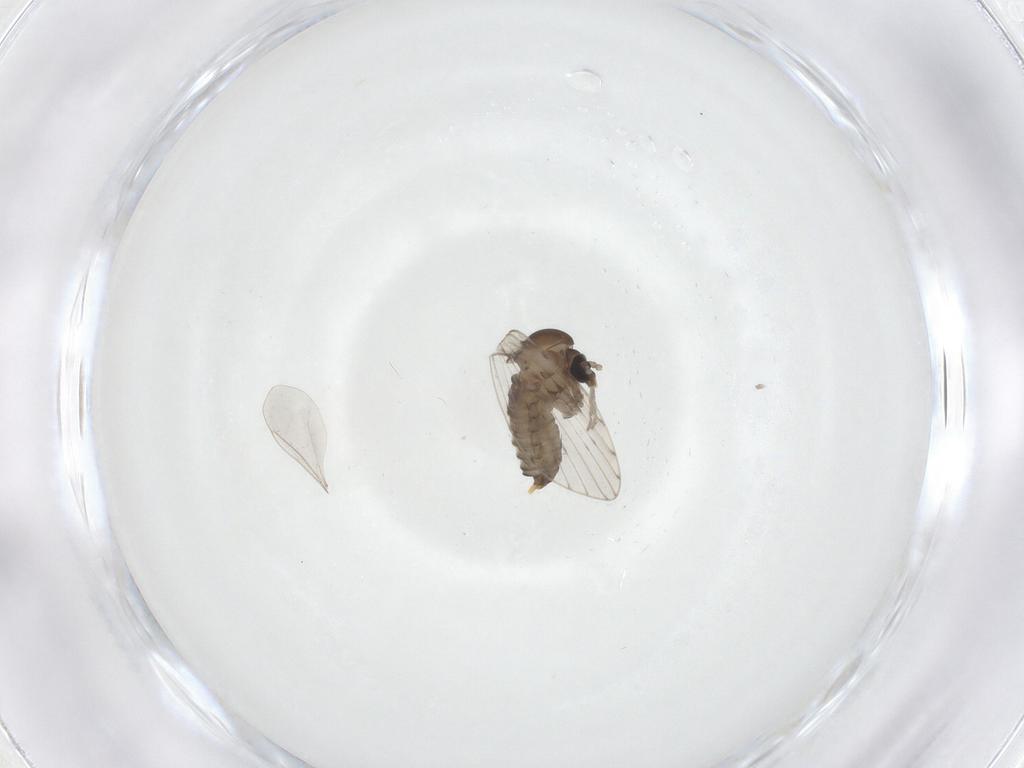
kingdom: Animalia
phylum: Arthropoda
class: Insecta
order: Diptera
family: Psychodidae
